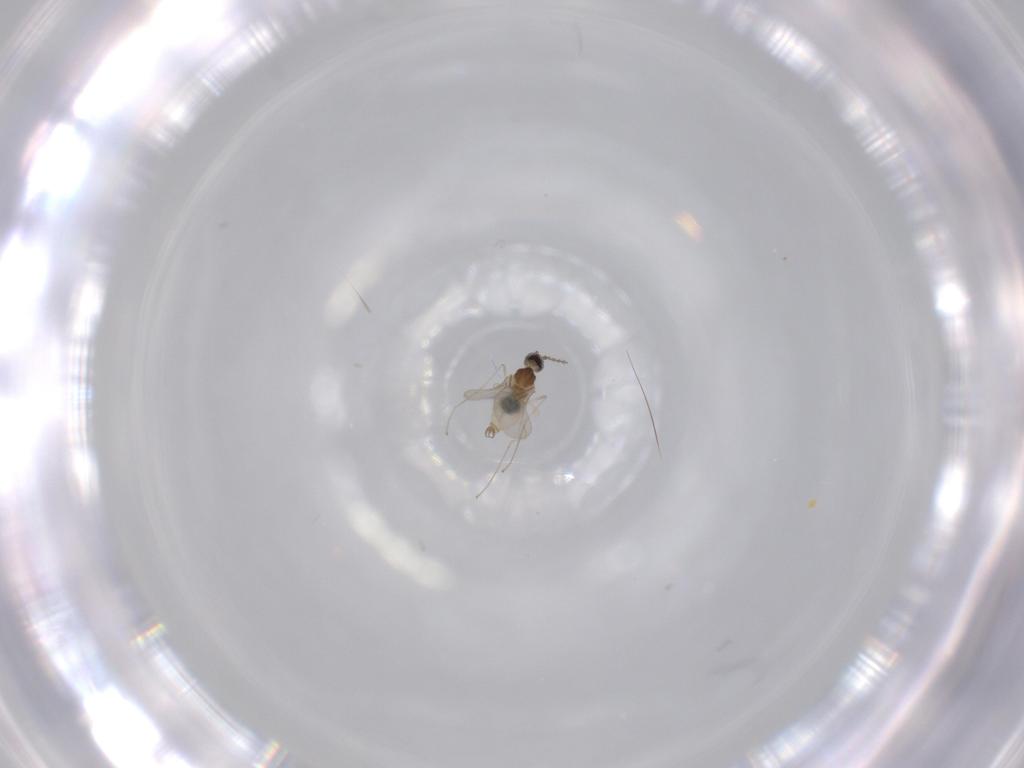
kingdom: Animalia
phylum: Arthropoda
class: Insecta
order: Diptera
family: Cecidomyiidae
